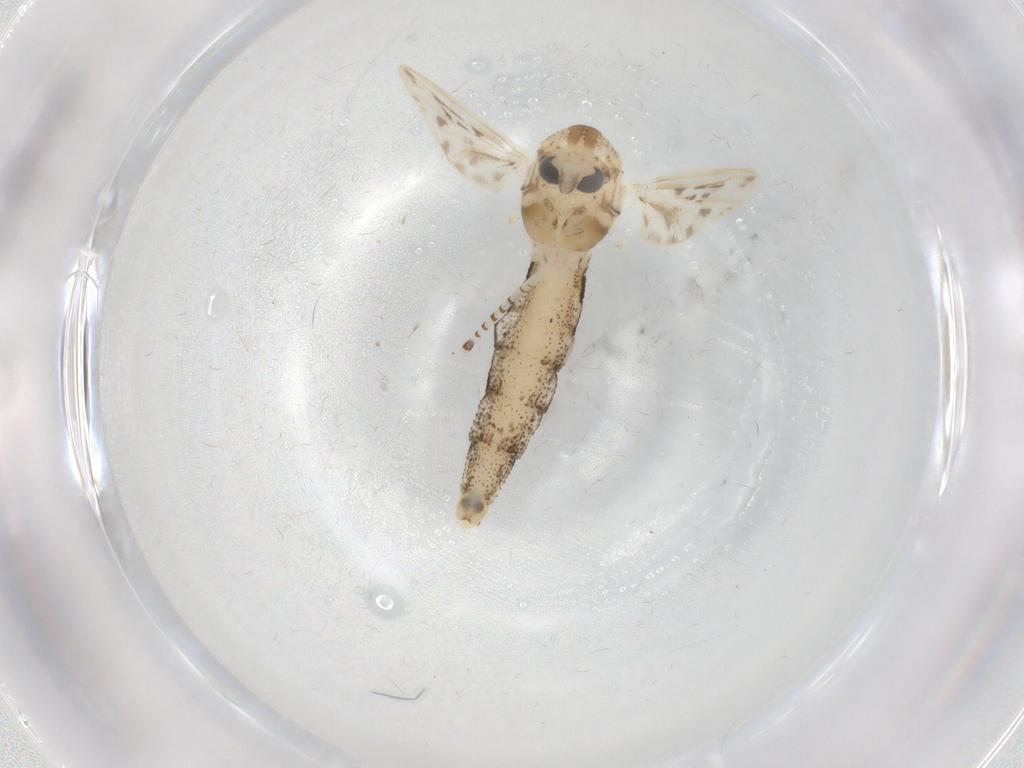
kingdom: Animalia
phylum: Arthropoda
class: Insecta
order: Diptera
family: Chaoboridae
